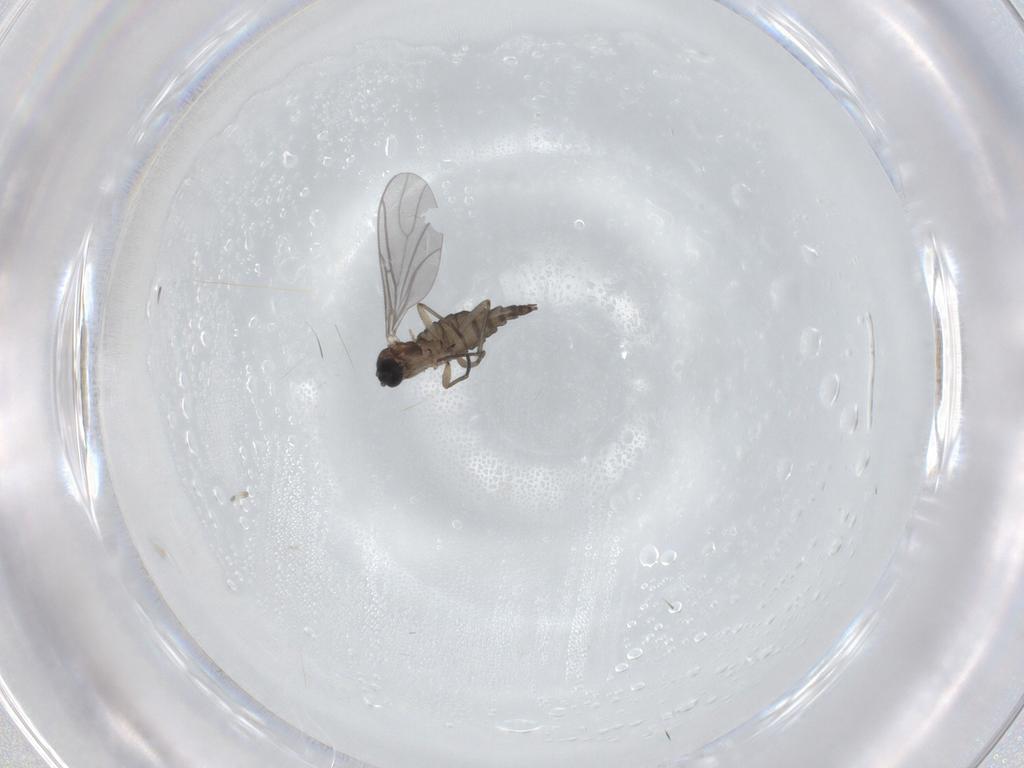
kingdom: Animalia
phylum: Arthropoda
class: Insecta
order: Diptera
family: Sciaridae
